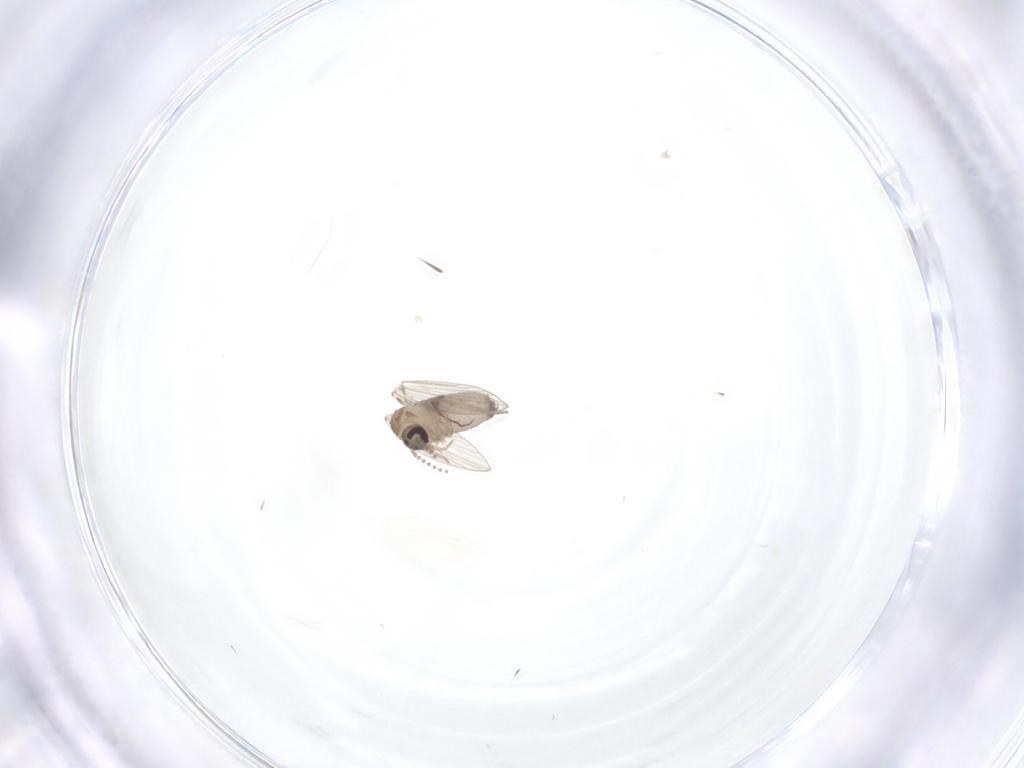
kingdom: Animalia
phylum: Arthropoda
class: Insecta
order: Diptera
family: Psychodidae
